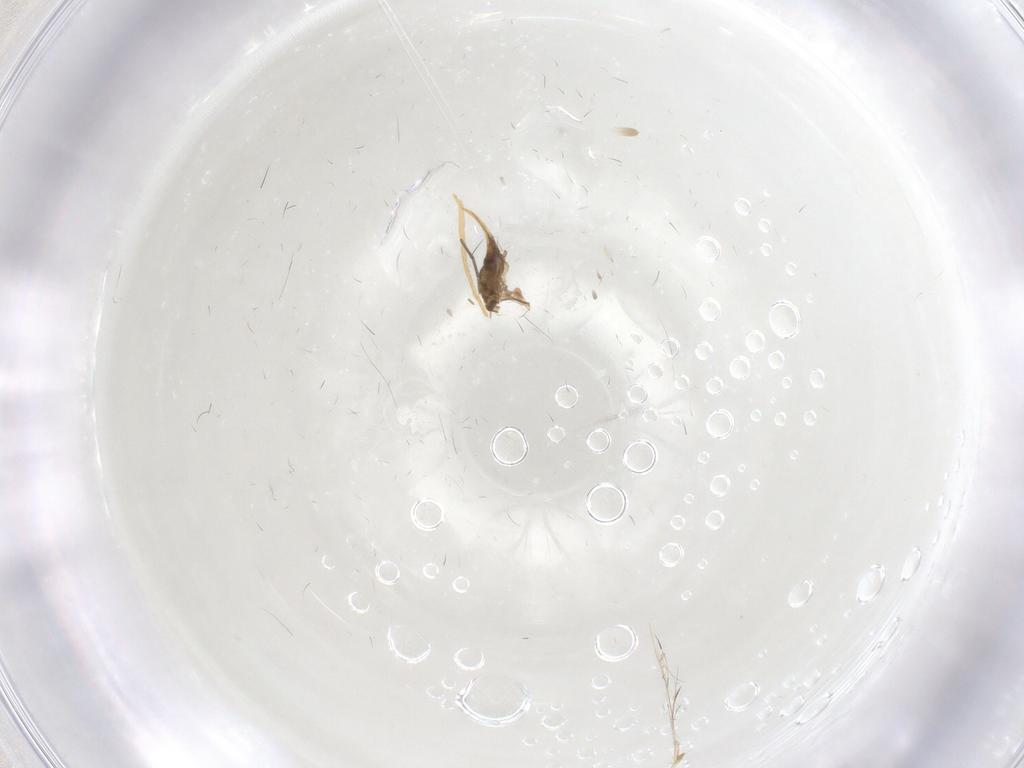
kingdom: Animalia
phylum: Arthropoda
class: Insecta
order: Diptera
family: Cecidomyiidae
